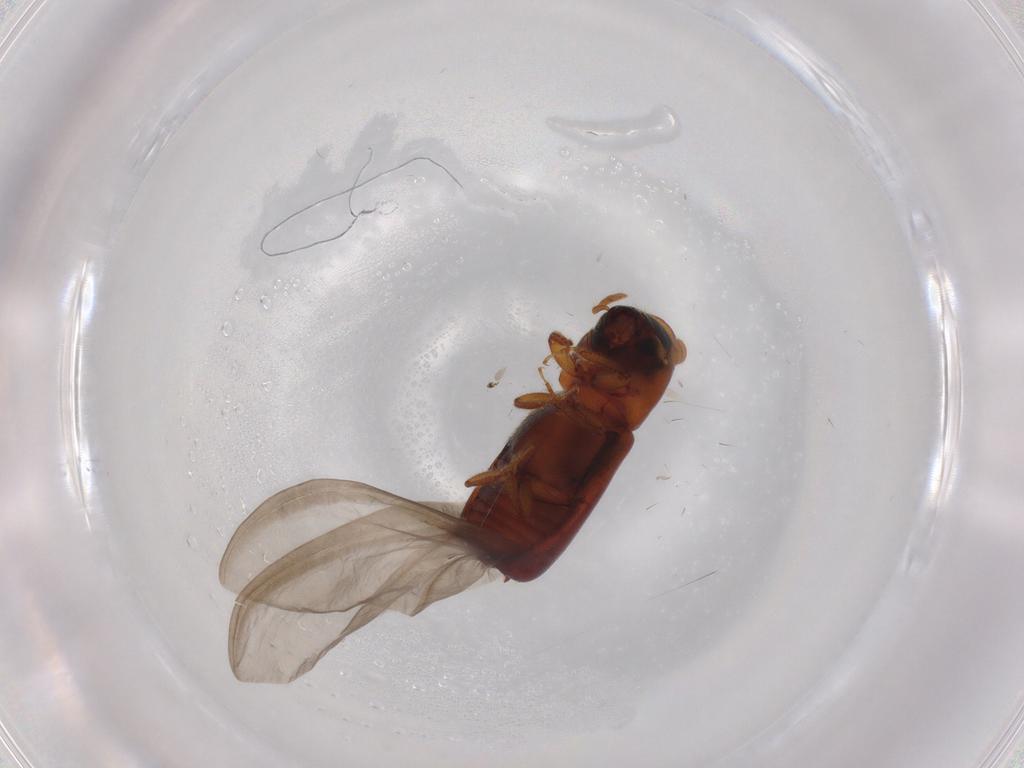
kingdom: Animalia
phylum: Arthropoda
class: Insecta
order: Coleoptera
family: Curculionidae
